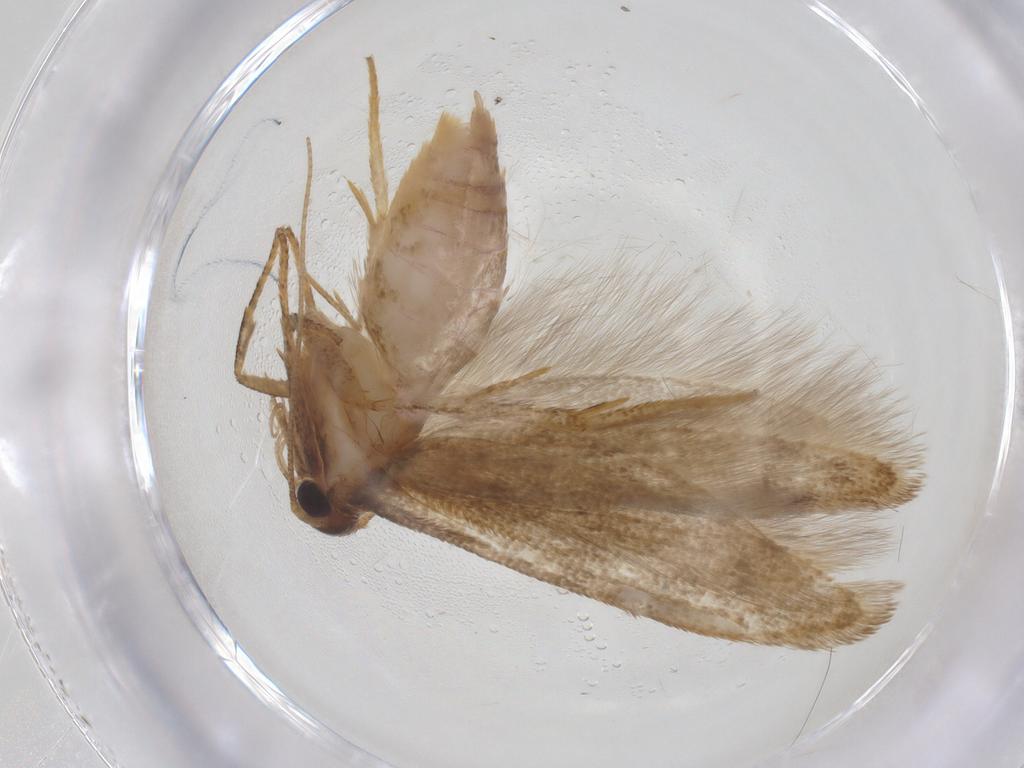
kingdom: Animalia
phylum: Arthropoda
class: Insecta
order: Lepidoptera
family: Blastobasidae
